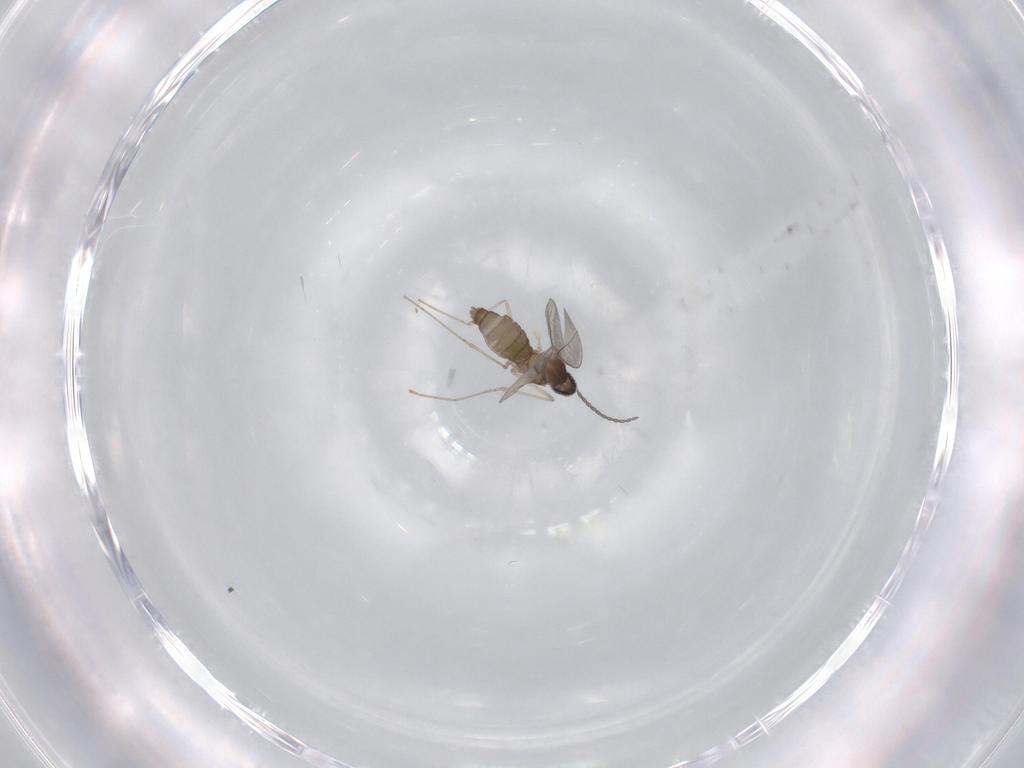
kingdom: Animalia
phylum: Arthropoda
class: Insecta
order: Diptera
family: Cecidomyiidae
